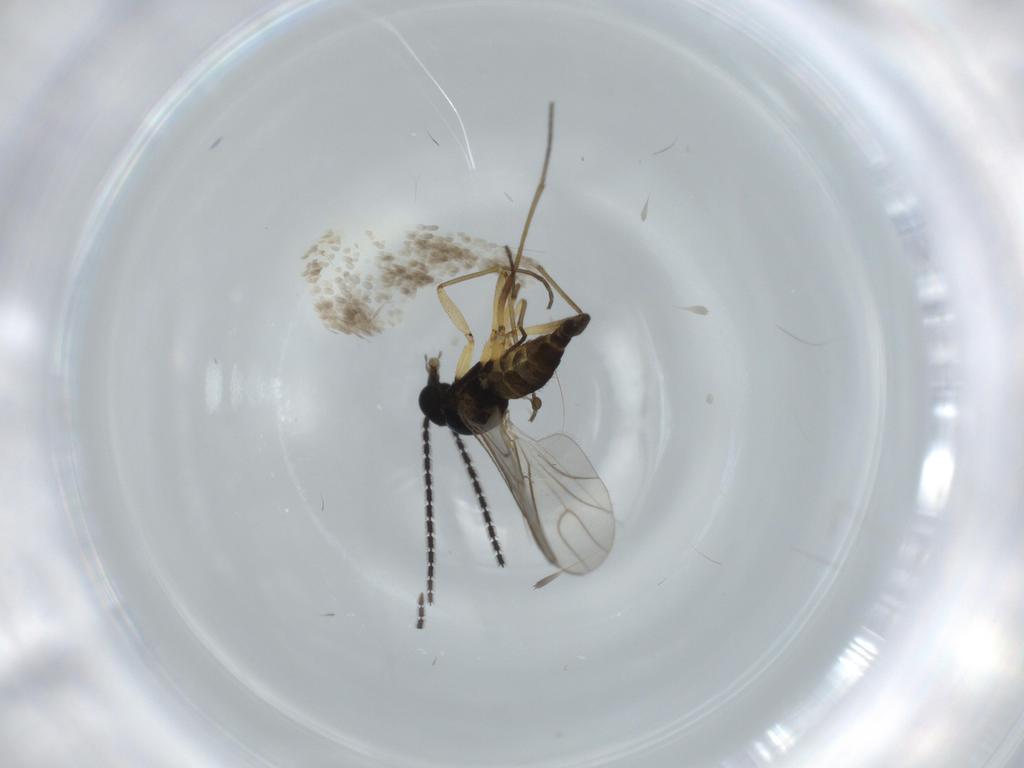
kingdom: Animalia
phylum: Arthropoda
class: Insecta
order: Diptera
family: Sciaridae
